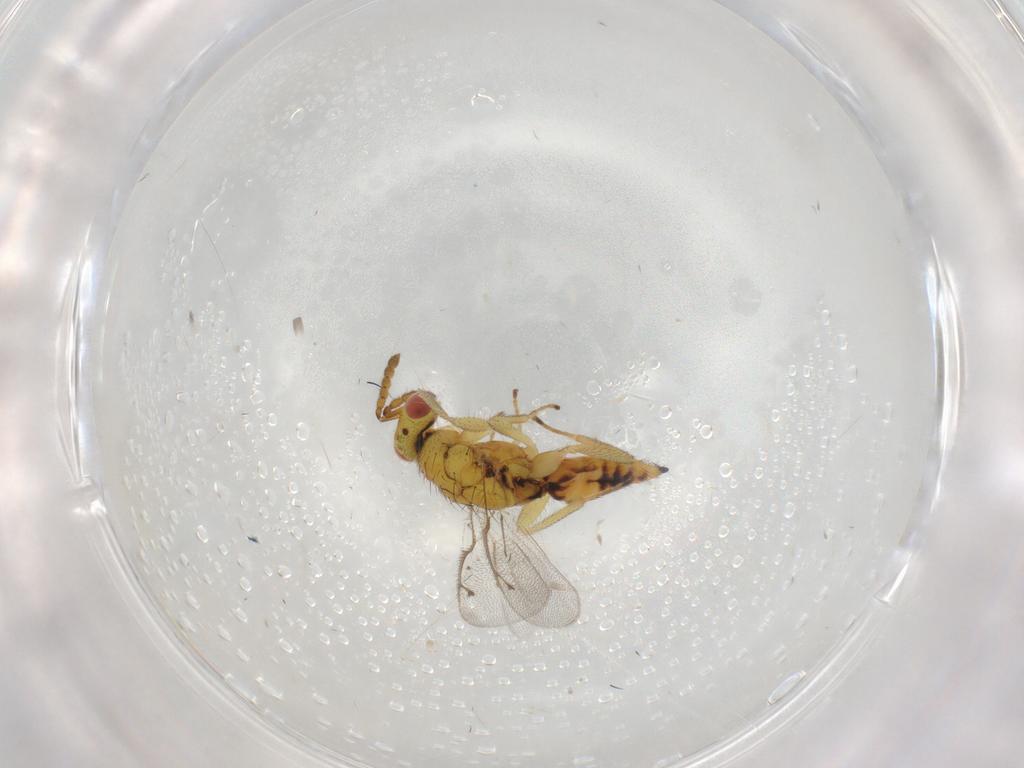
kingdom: Animalia
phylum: Arthropoda
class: Insecta
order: Hymenoptera
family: Eulophidae
